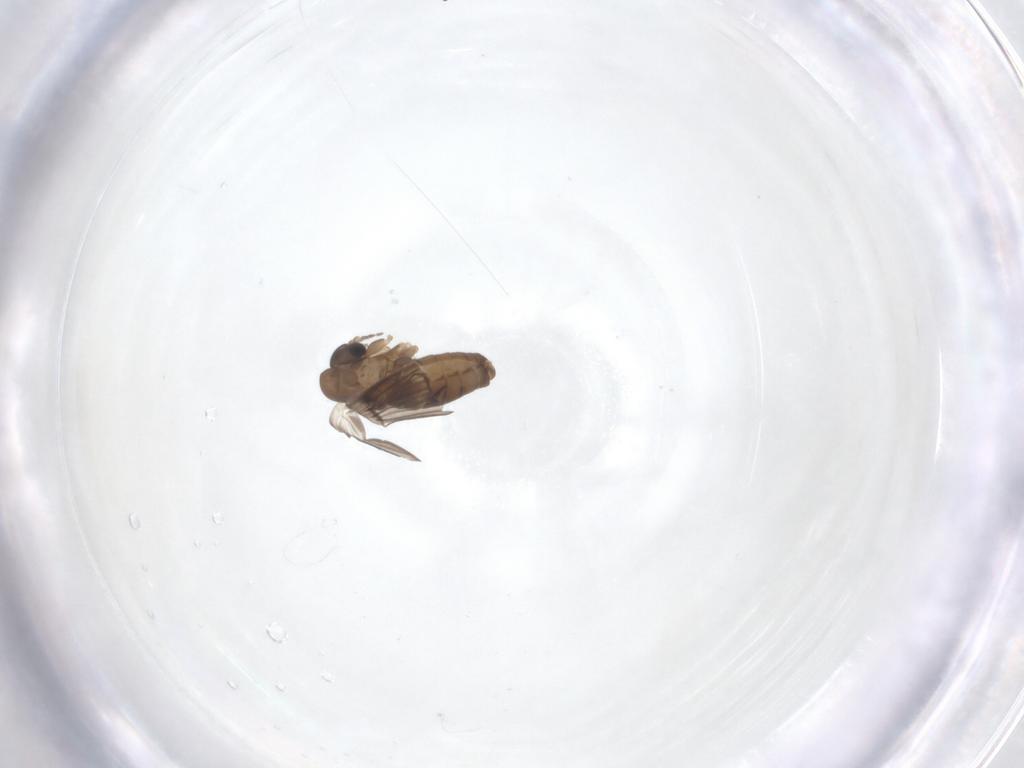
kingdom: Animalia
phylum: Arthropoda
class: Insecta
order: Diptera
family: Psychodidae
